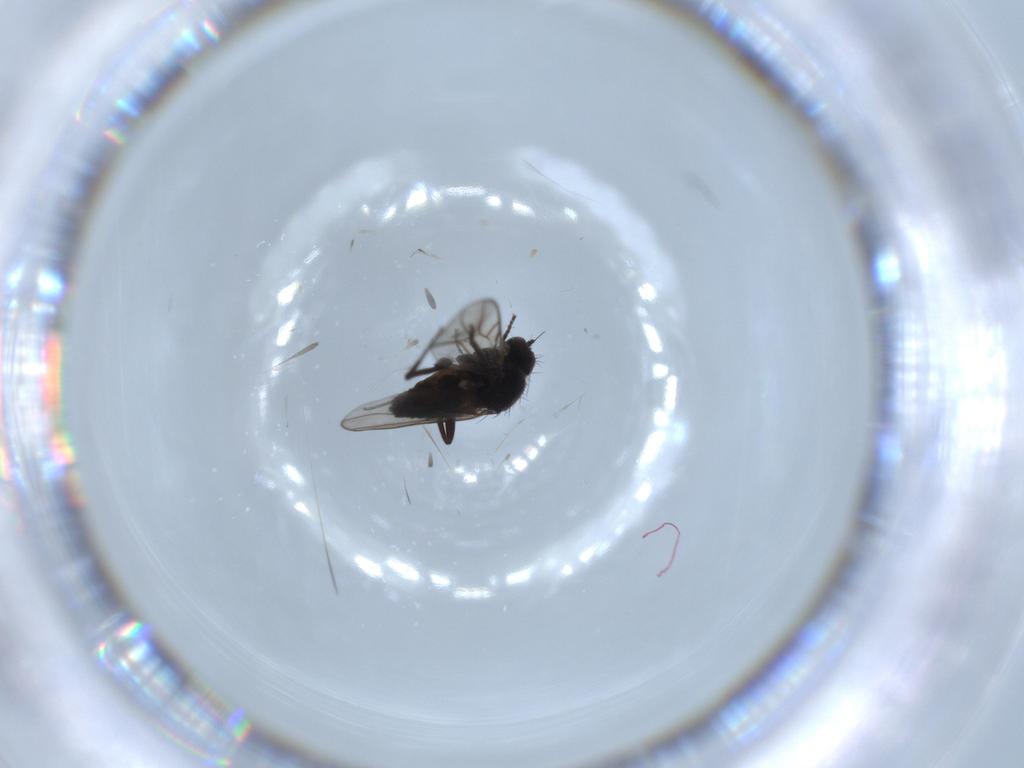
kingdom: Animalia
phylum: Arthropoda
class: Insecta
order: Diptera
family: Hybotidae
